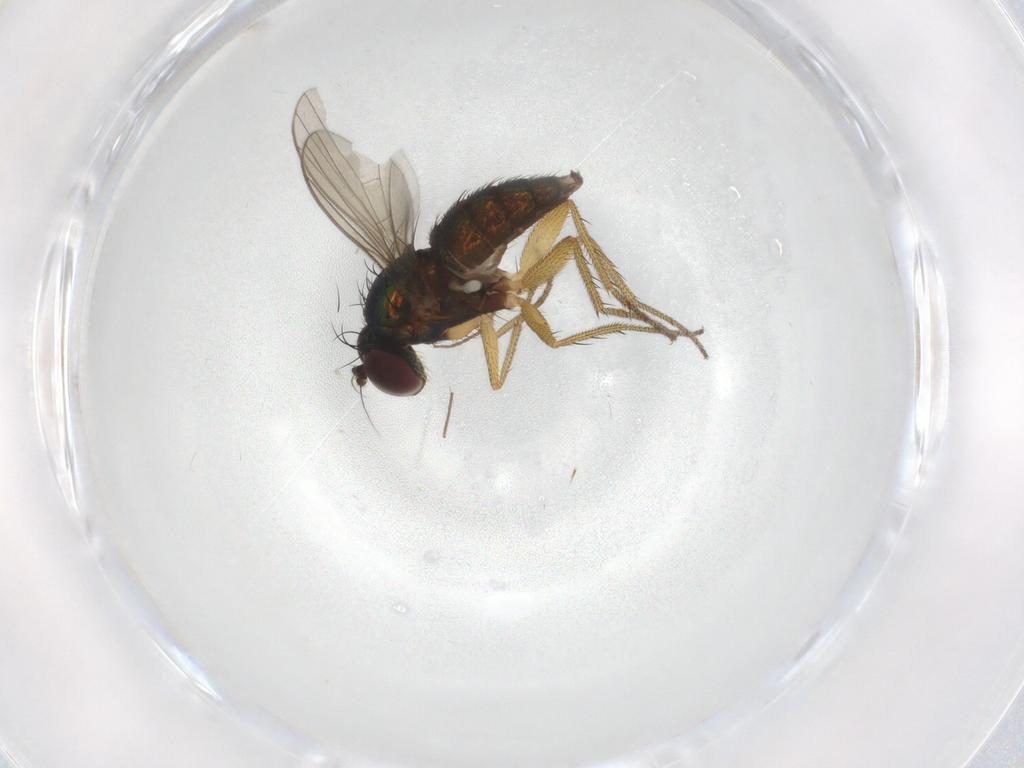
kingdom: Animalia
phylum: Arthropoda
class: Insecta
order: Diptera
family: Dolichopodidae
